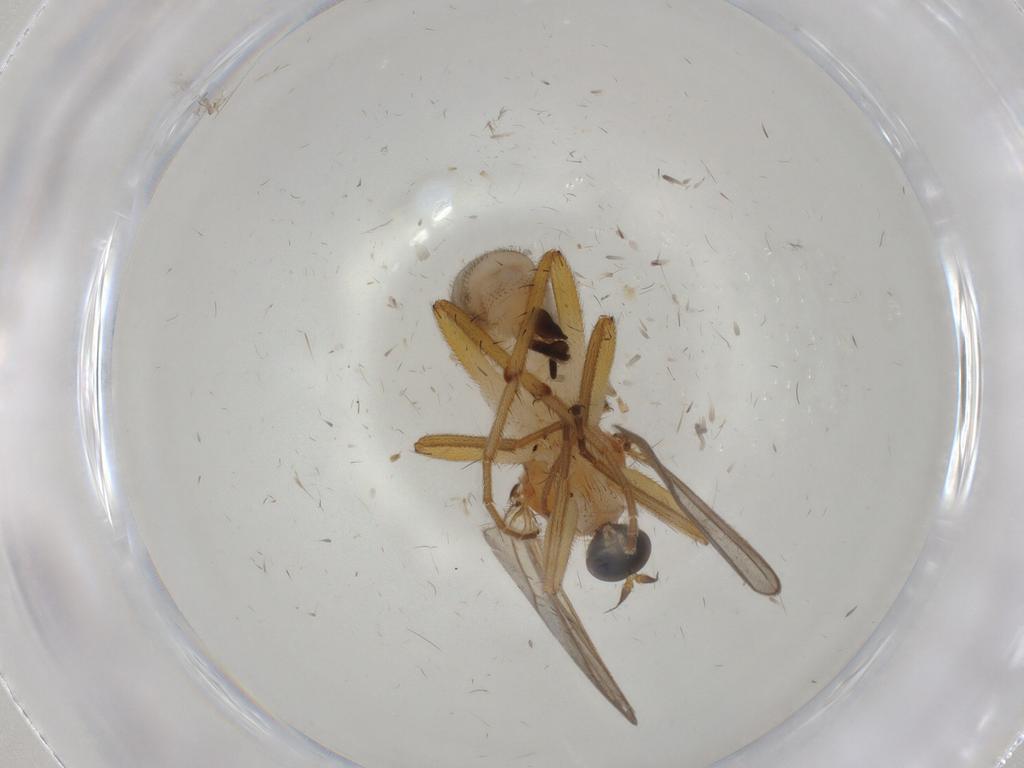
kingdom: Animalia
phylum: Arthropoda
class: Insecta
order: Diptera
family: Hybotidae
